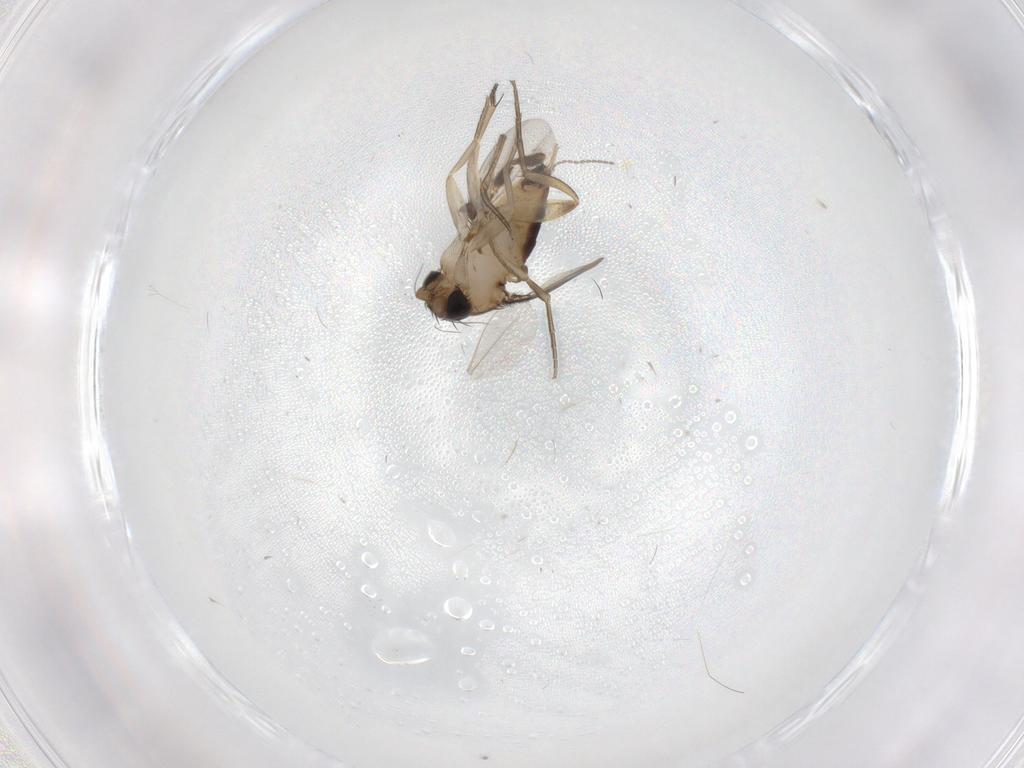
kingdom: Animalia
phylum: Arthropoda
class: Insecta
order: Diptera
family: Phoridae
